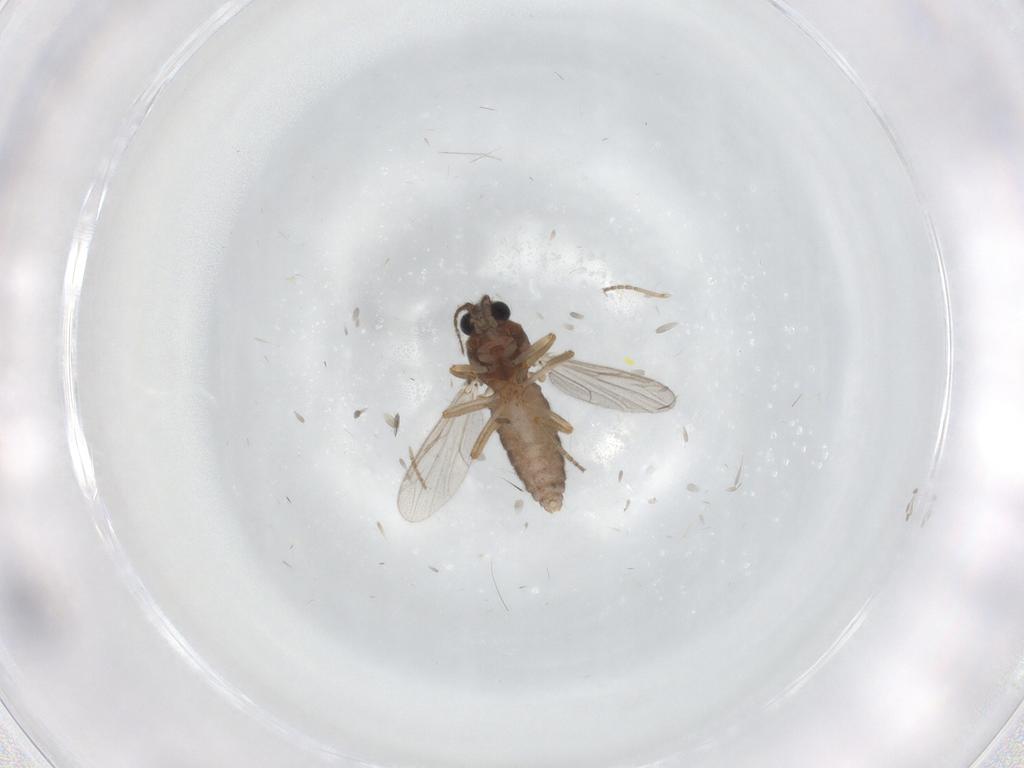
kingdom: Animalia
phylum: Arthropoda
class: Insecta
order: Diptera
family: Ceratopogonidae
